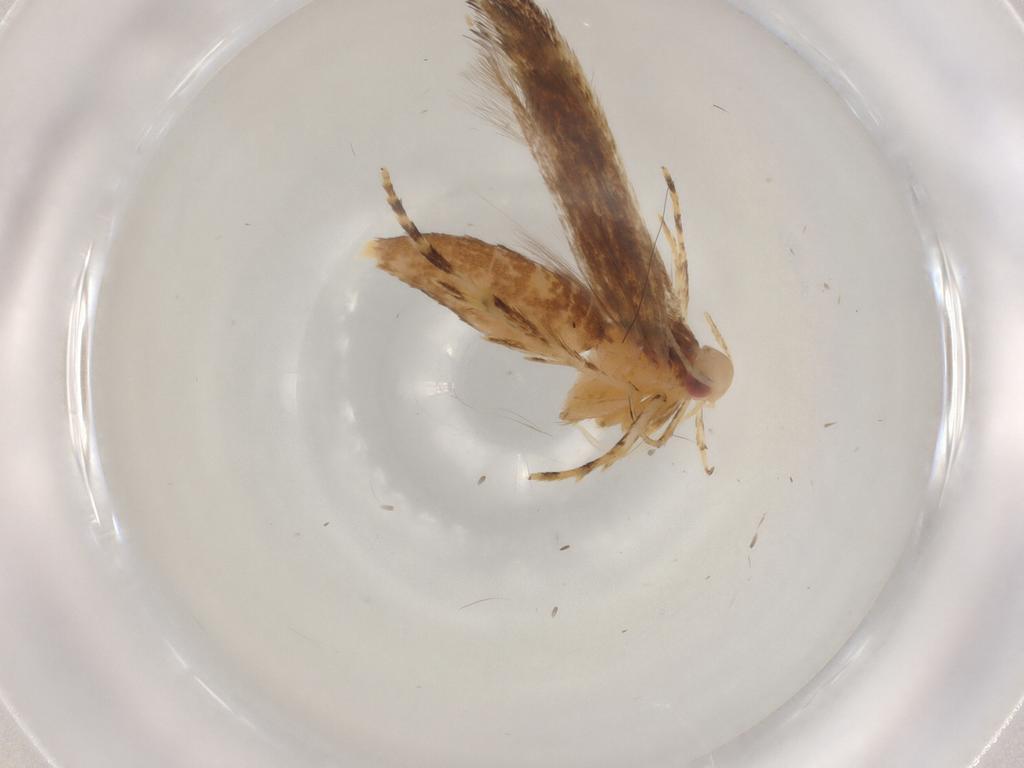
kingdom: Animalia
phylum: Arthropoda
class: Insecta
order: Lepidoptera
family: Cosmopterigidae
